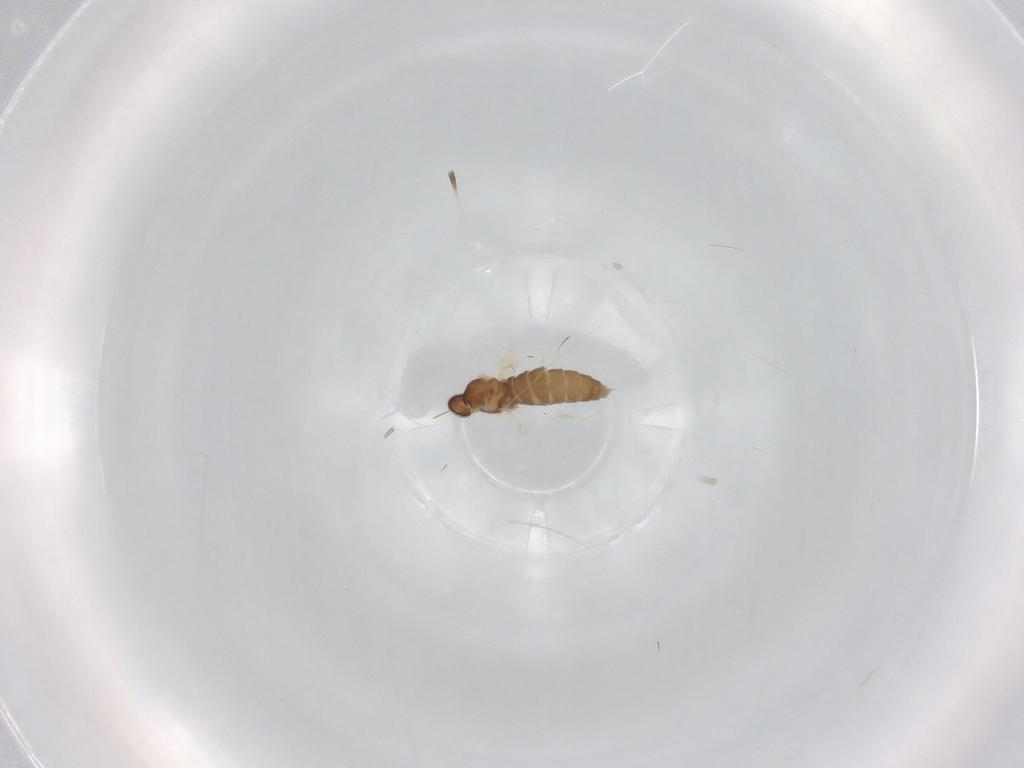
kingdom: Animalia
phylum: Arthropoda
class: Insecta
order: Diptera
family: Cecidomyiidae
